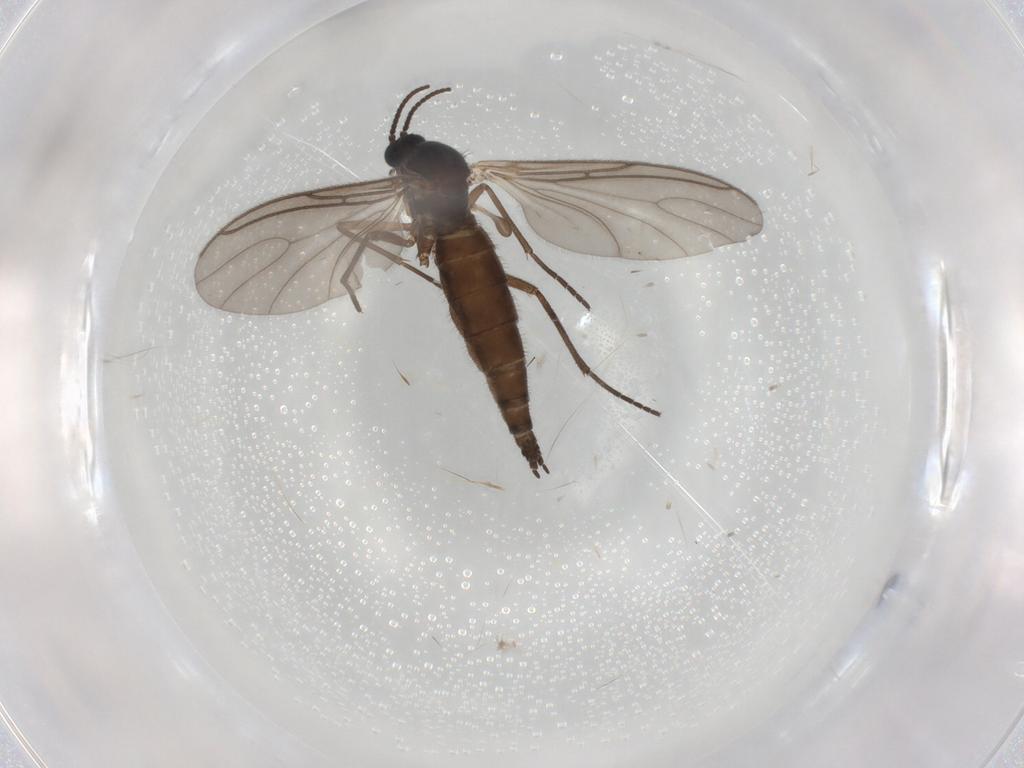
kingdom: Animalia
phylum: Arthropoda
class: Insecta
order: Diptera
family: Sciaridae
